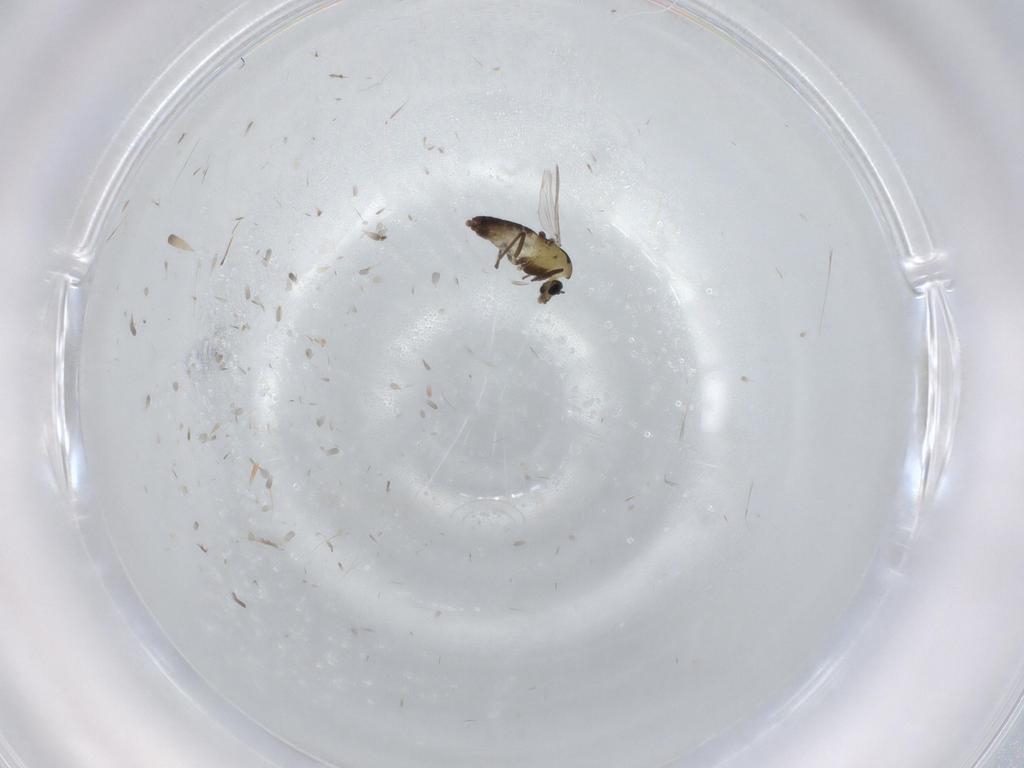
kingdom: Animalia
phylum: Arthropoda
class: Insecta
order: Diptera
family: Chironomidae
